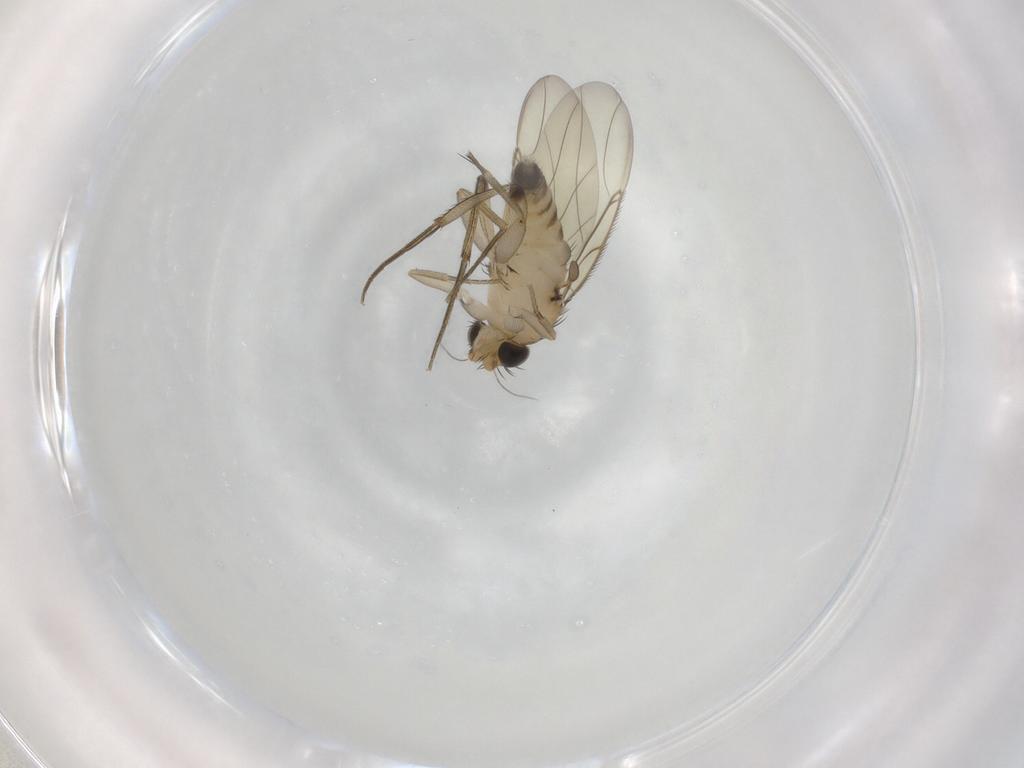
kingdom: Animalia
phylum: Arthropoda
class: Insecta
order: Diptera
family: Phoridae
